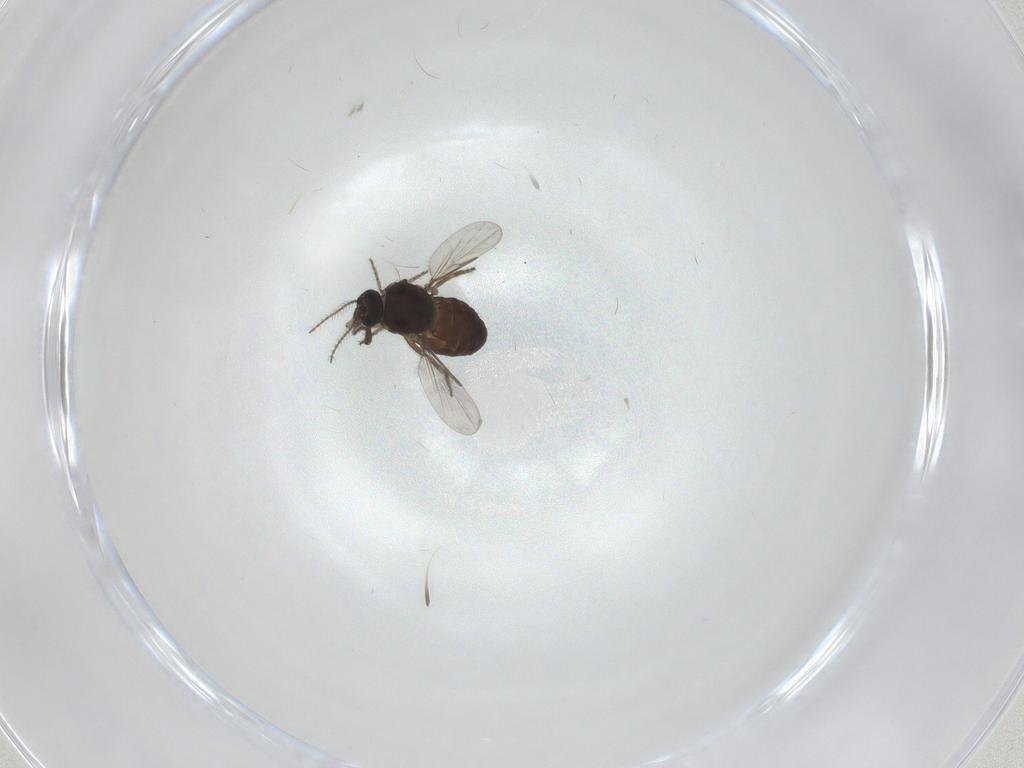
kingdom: Animalia
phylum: Arthropoda
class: Insecta
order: Diptera
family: Ceratopogonidae
